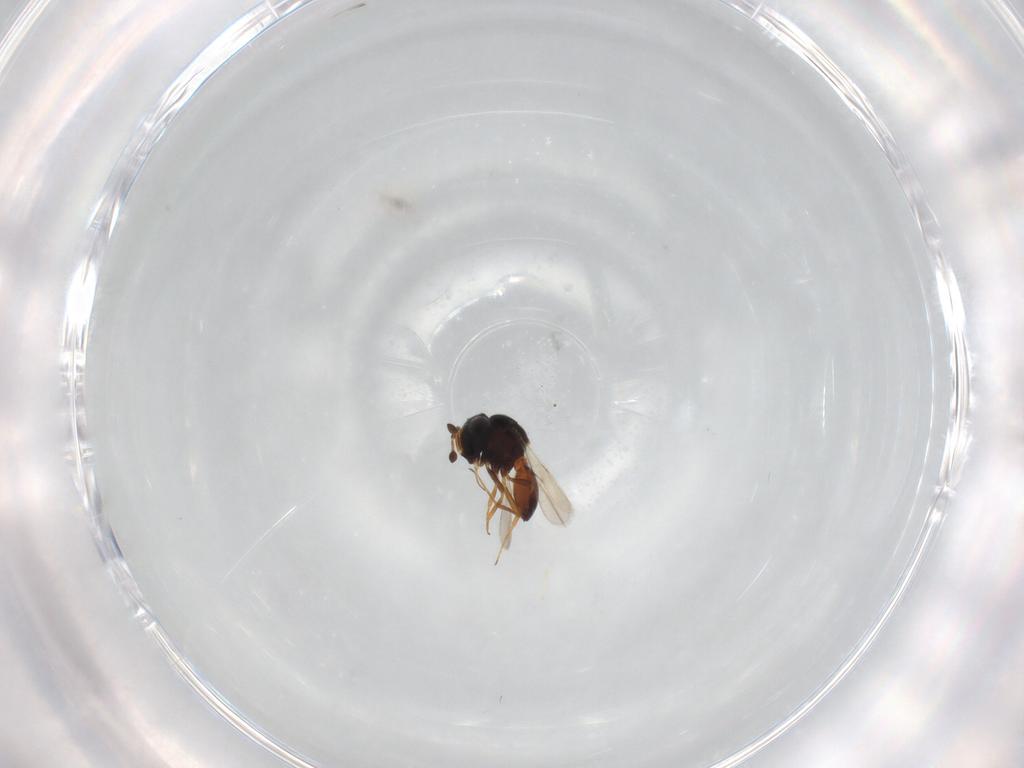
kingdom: Animalia
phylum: Arthropoda
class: Insecta
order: Hymenoptera
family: Scelionidae
